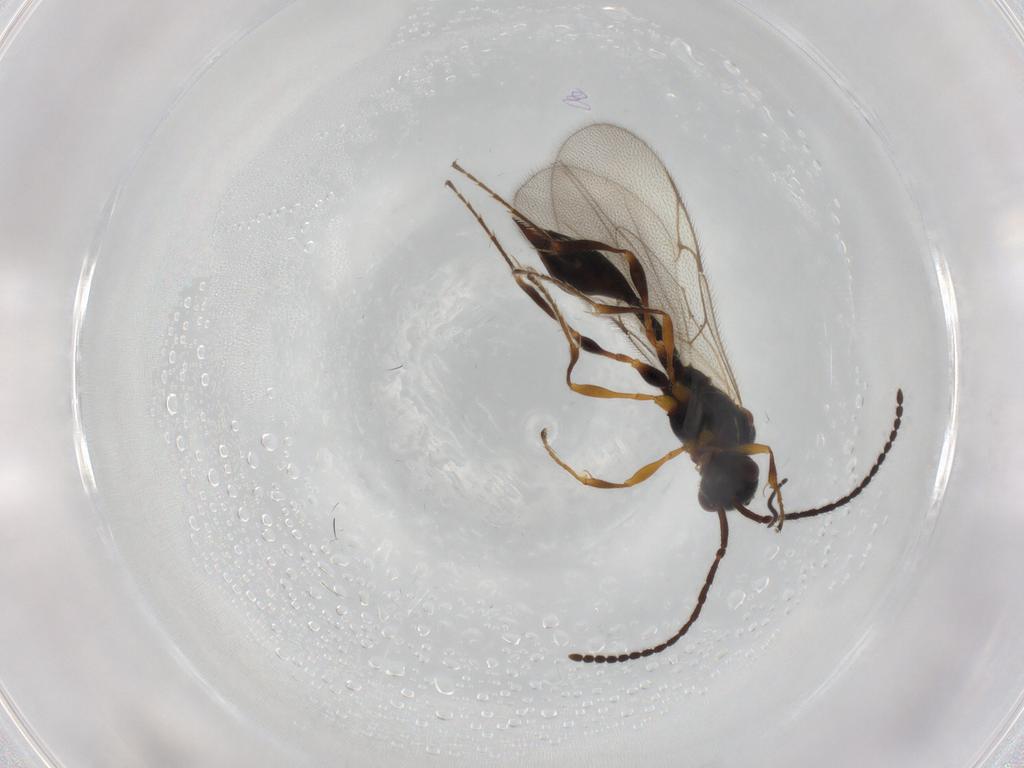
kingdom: Animalia
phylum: Arthropoda
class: Insecta
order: Hymenoptera
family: Diapriidae
